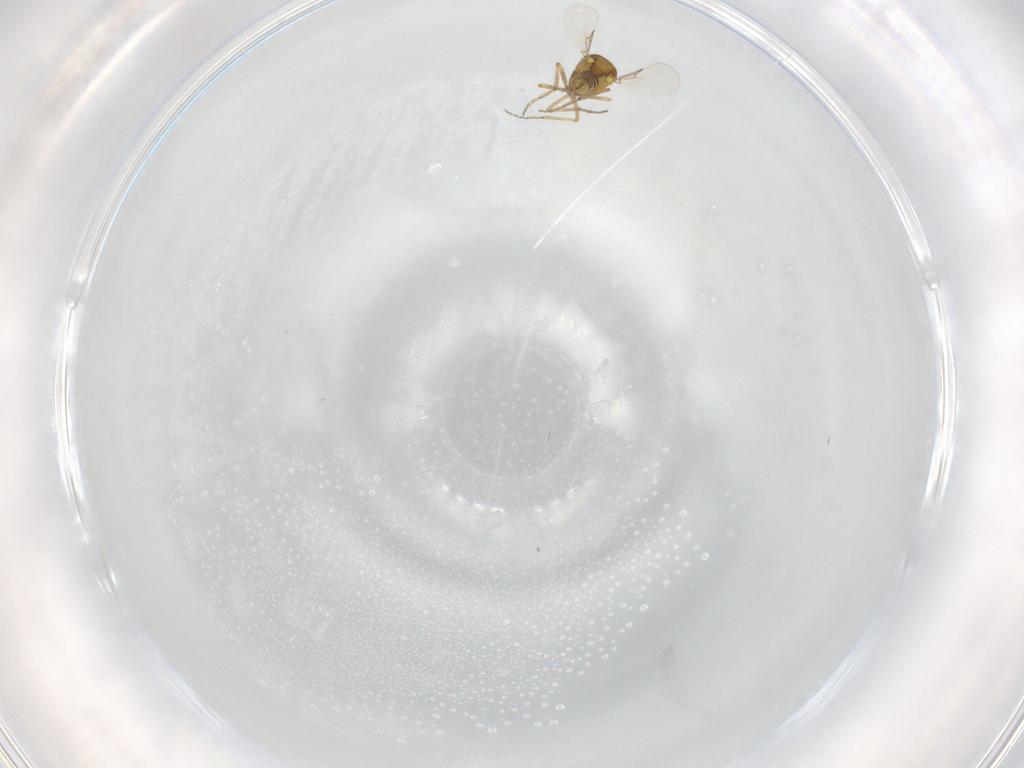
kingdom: Animalia
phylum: Arthropoda
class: Insecta
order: Diptera
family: Ceratopogonidae
